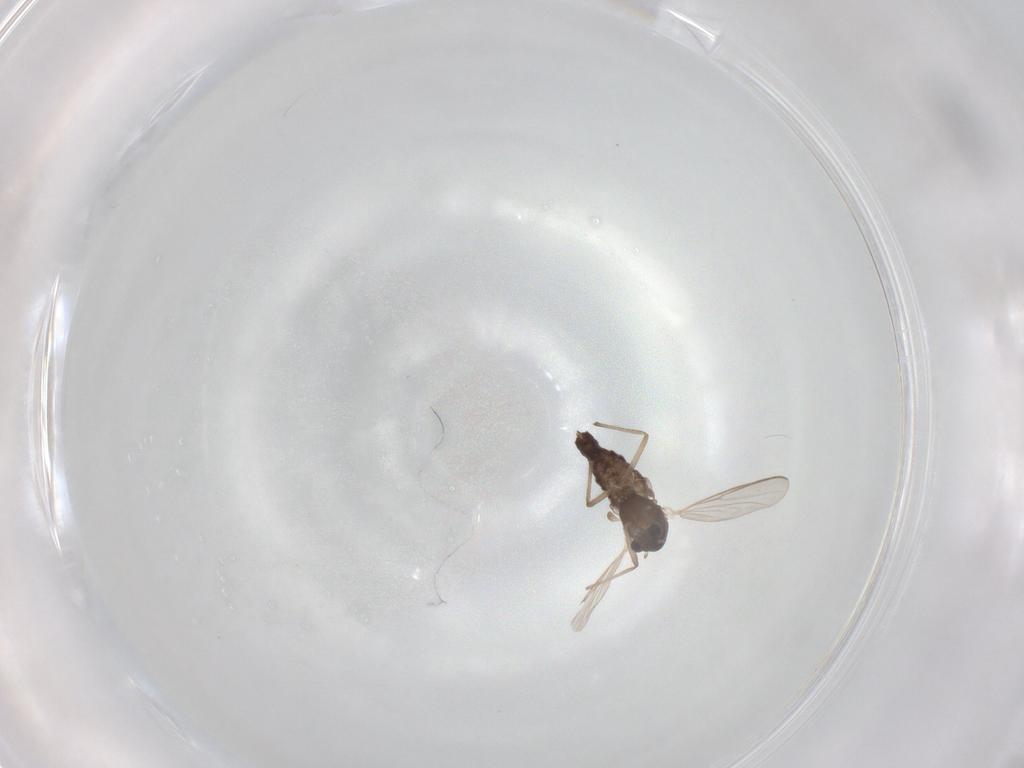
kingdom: Animalia
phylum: Arthropoda
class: Insecta
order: Diptera
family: Chironomidae
